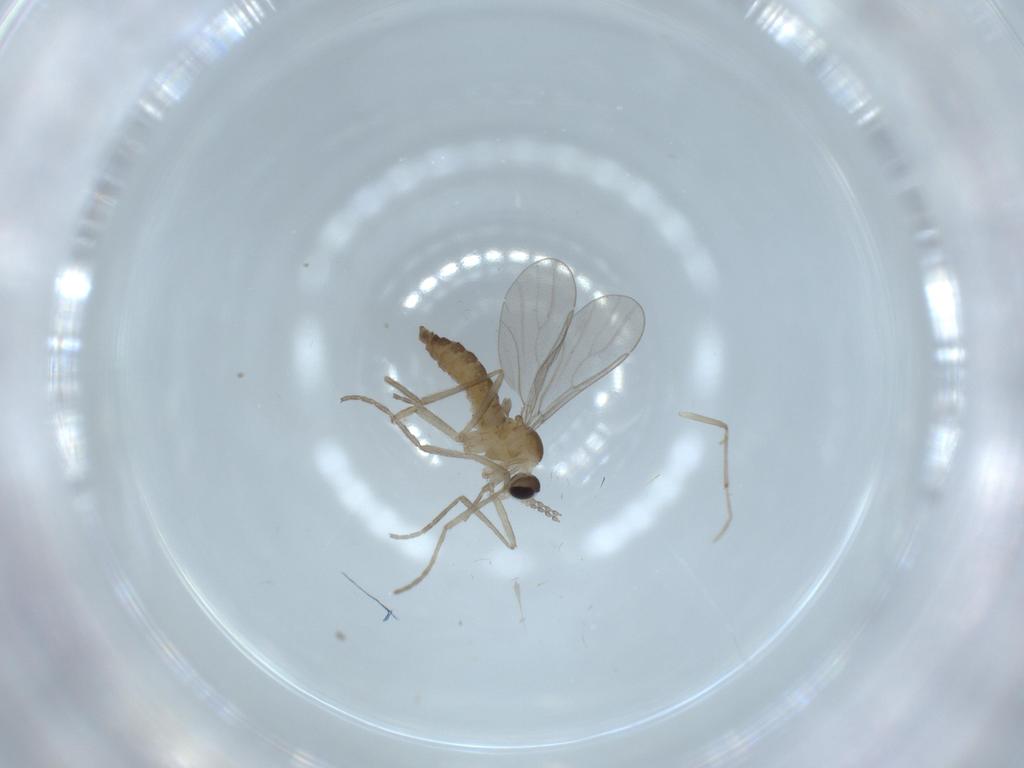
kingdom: Animalia
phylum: Arthropoda
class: Insecta
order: Diptera
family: Cecidomyiidae
